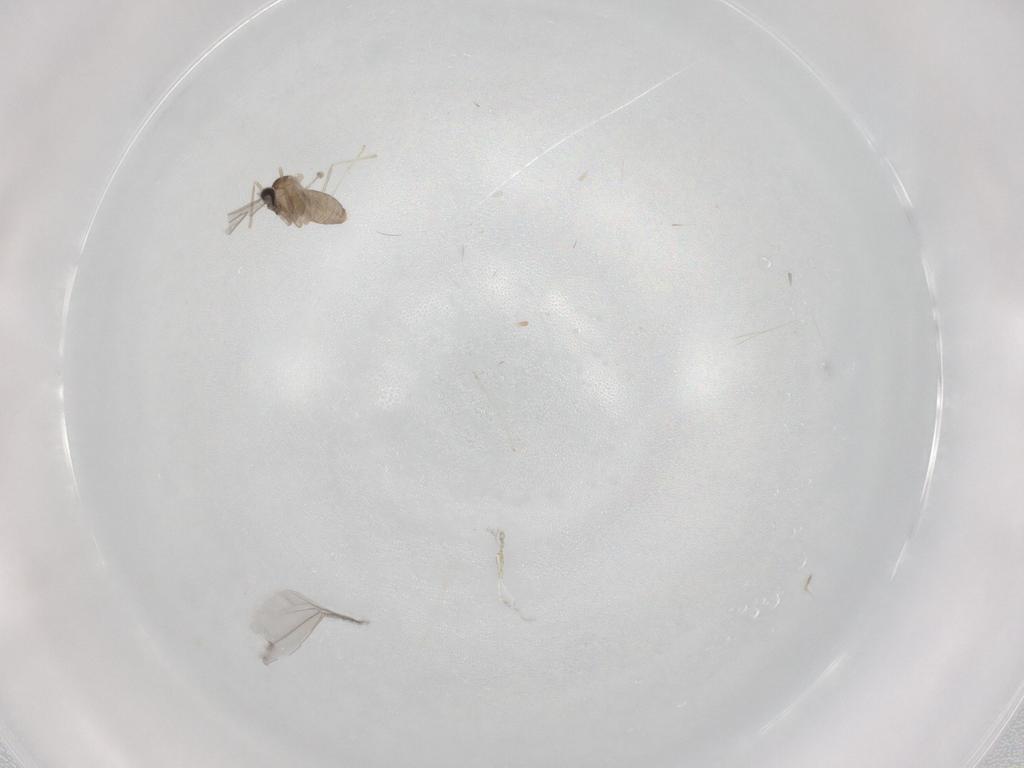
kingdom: Animalia
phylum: Arthropoda
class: Insecta
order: Diptera
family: Cecidomyiidae
